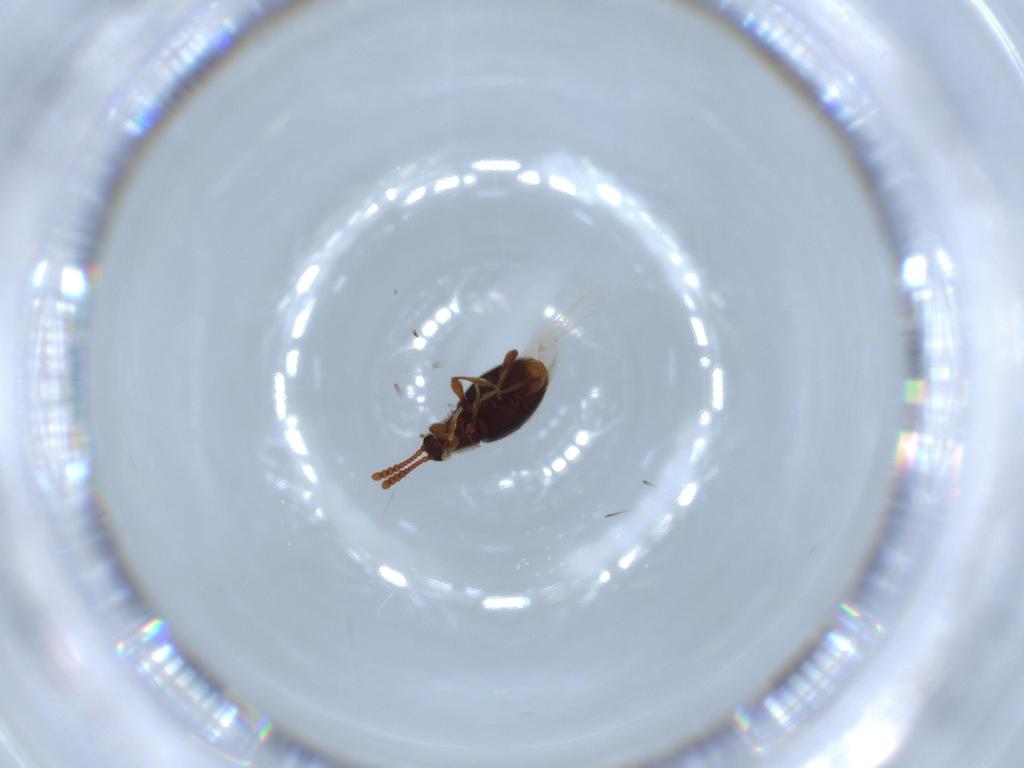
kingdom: Animalia
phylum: Arthropoda
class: Insecta
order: Coleoptera
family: Staphylinidae
